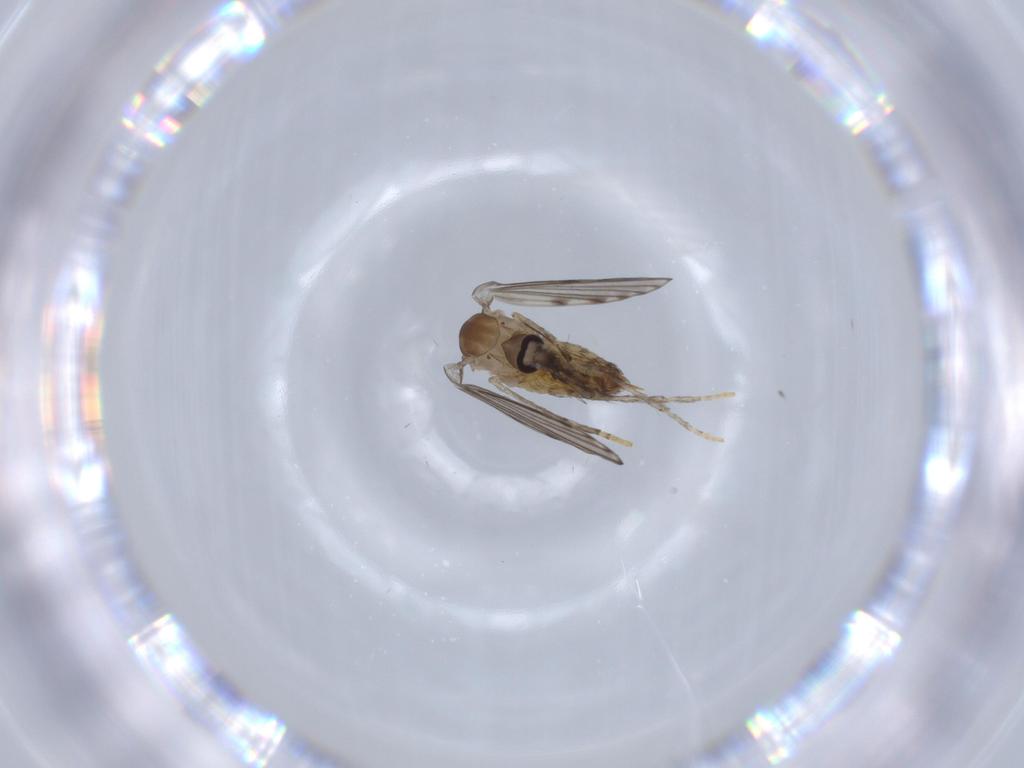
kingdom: Animalia
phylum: Arthropoda
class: Insecta
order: Diptera
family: Psychodidae
